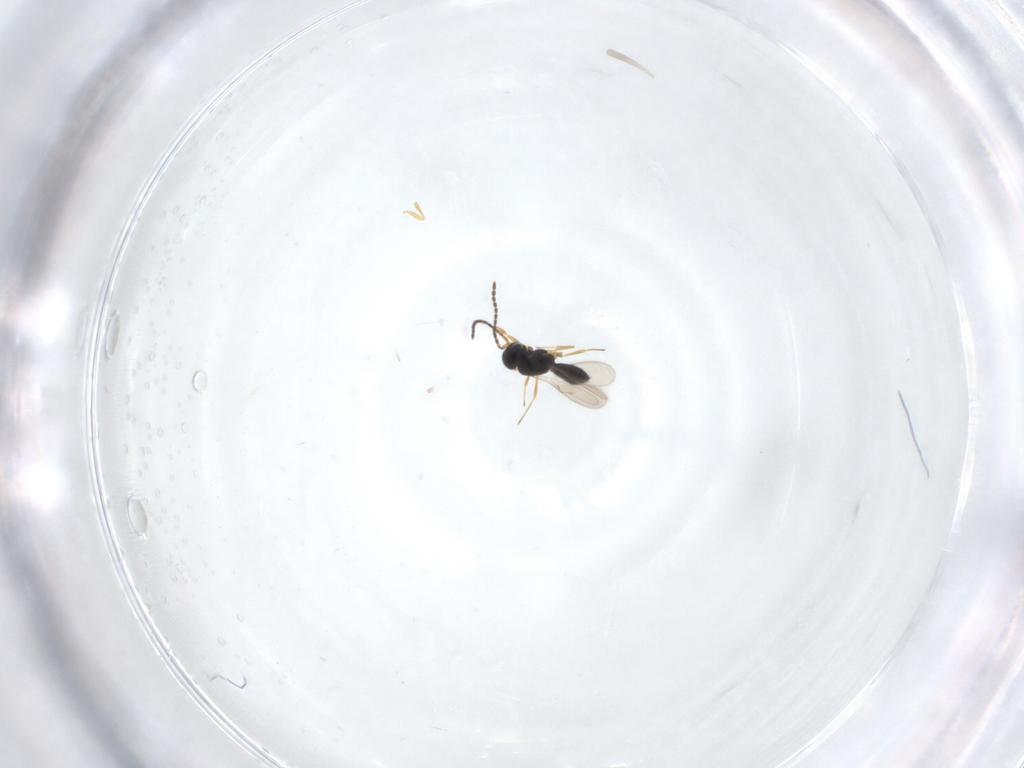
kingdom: Animalia
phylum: Arthropoda
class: Insecta
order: Hymenoptera
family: Scelionidae
